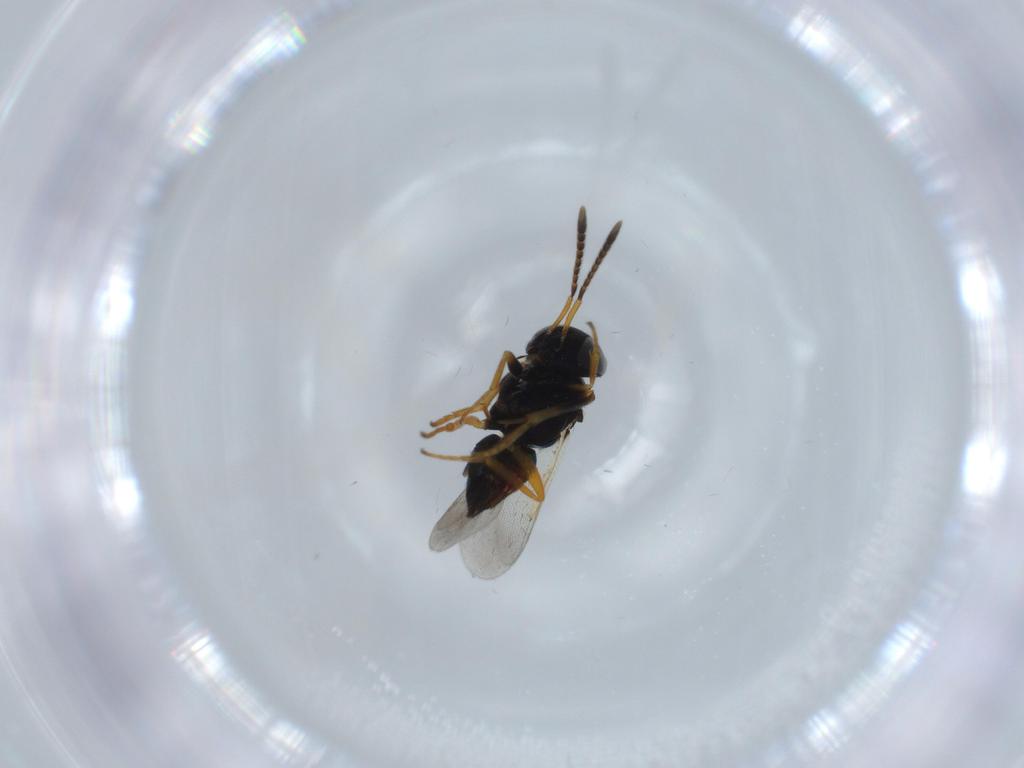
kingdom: Animalia
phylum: Arthropoda
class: Insecta
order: Hymenoptera
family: Encyrtidae
